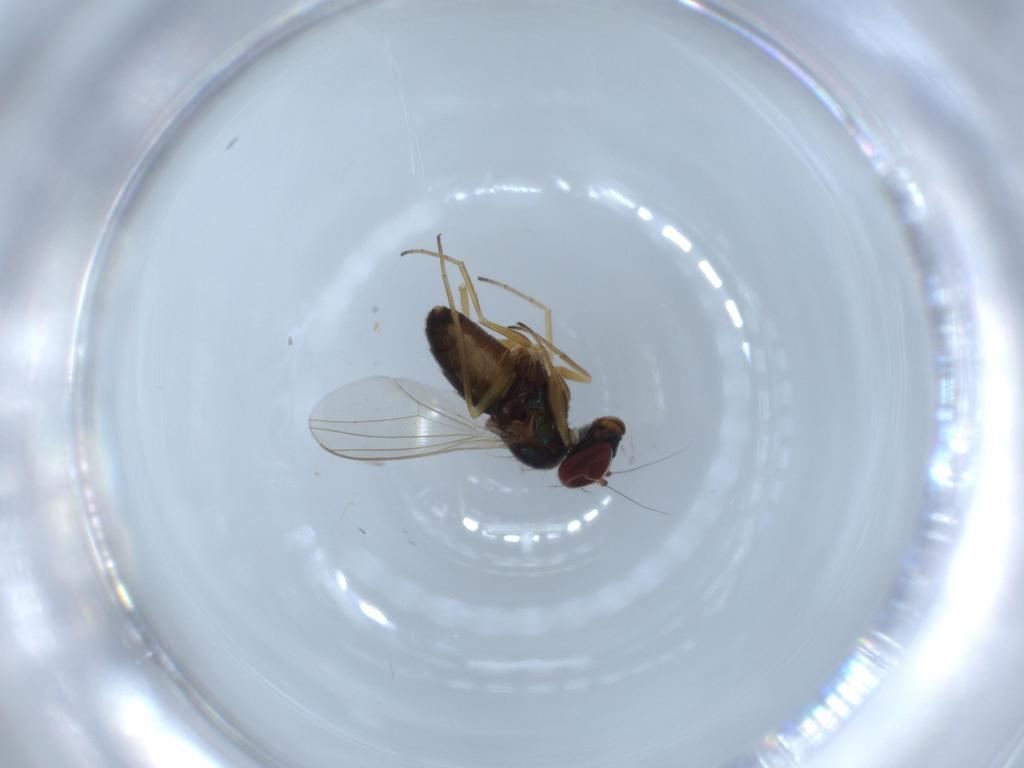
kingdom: Animalia
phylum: Arthropoda
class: Insecta
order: Diptera
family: Dolichopodidae
